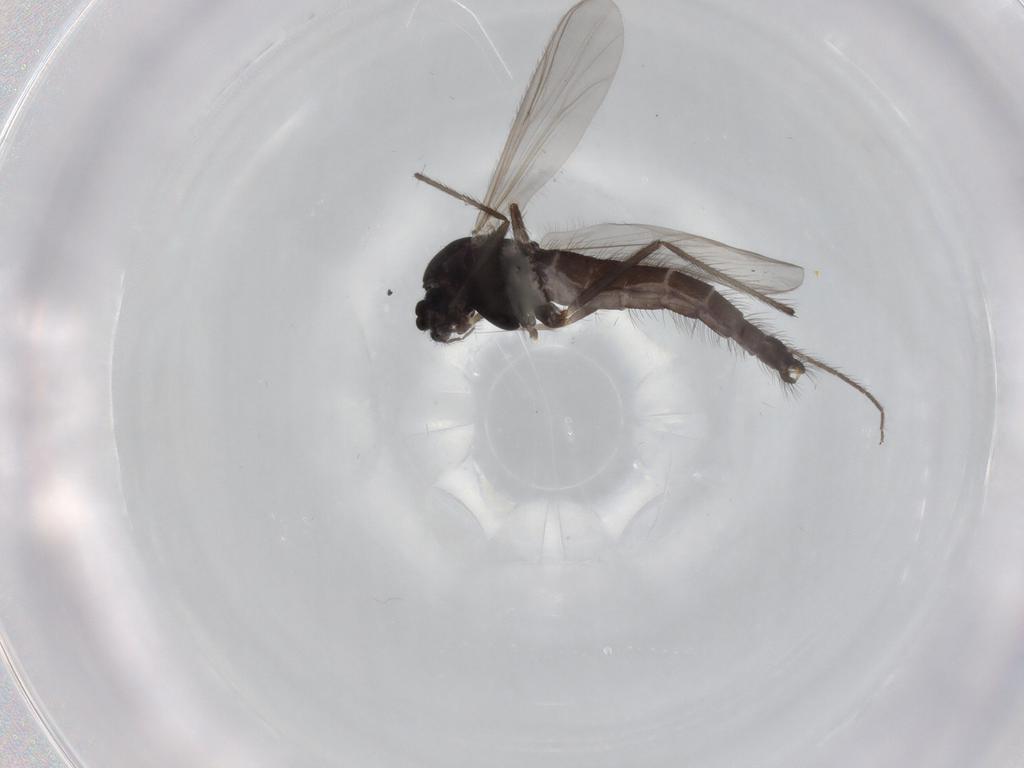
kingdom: Animalia
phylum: Arthropoda
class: Insecta
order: Diptera
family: Chironomidae
